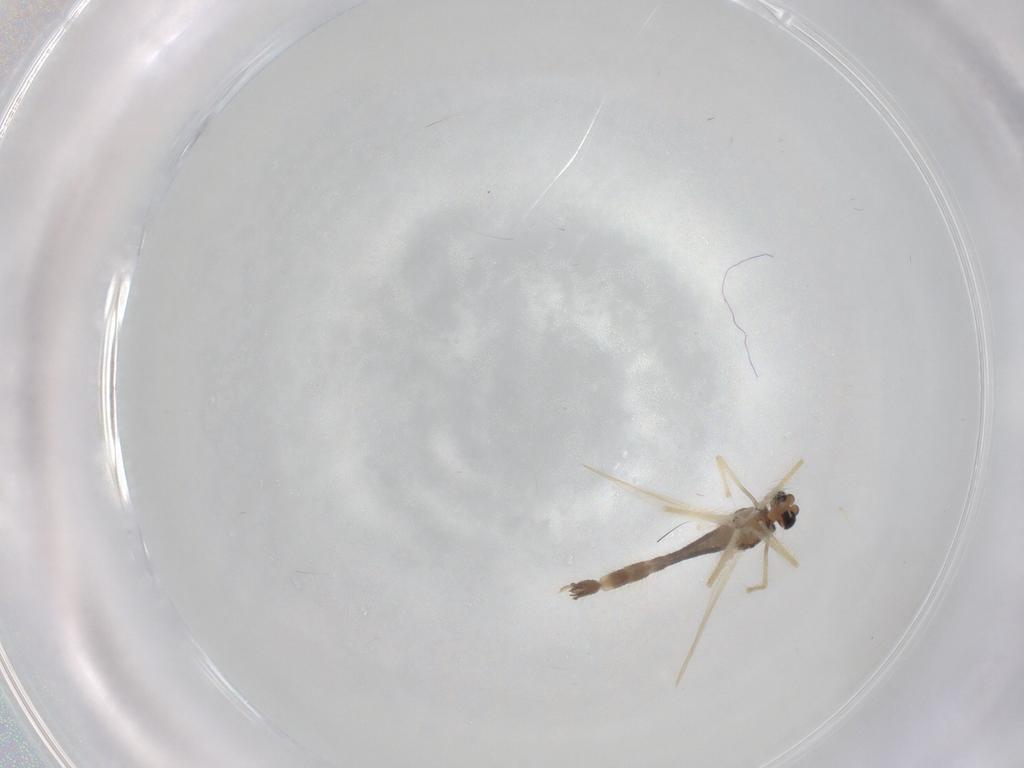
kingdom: Animalia
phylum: Arthropoda
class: Insecta
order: Diptera
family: Chironomidae
